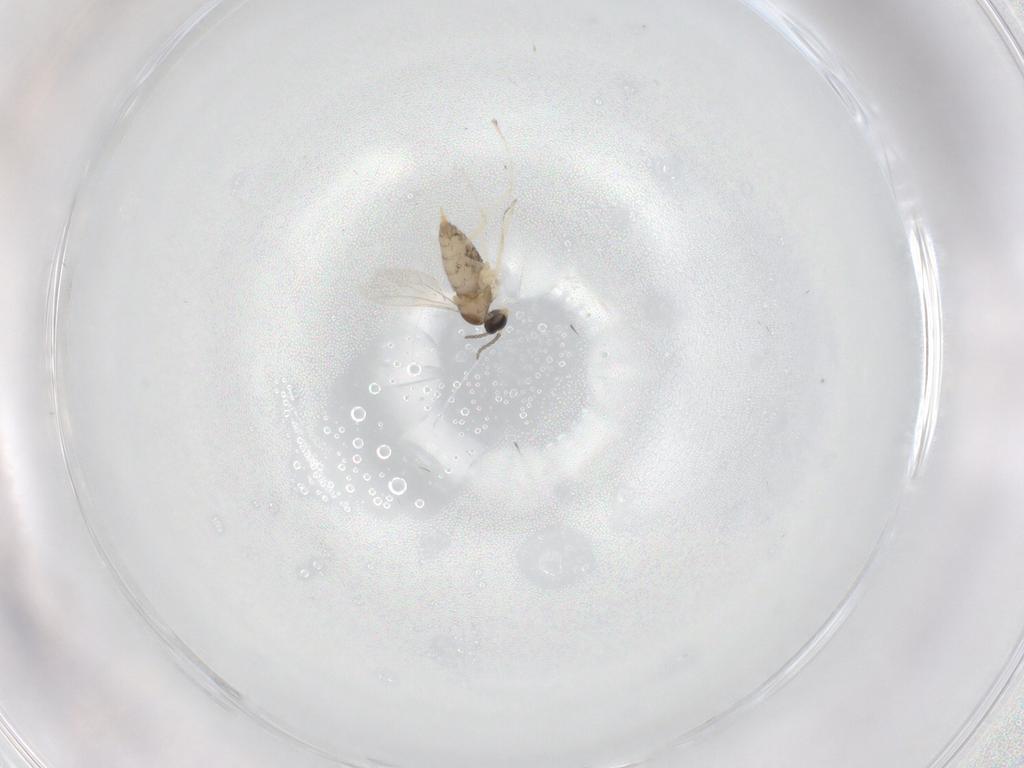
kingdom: Animalia
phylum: Arthropoda
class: Insecta
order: Diptera
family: Cecidomyiidae
